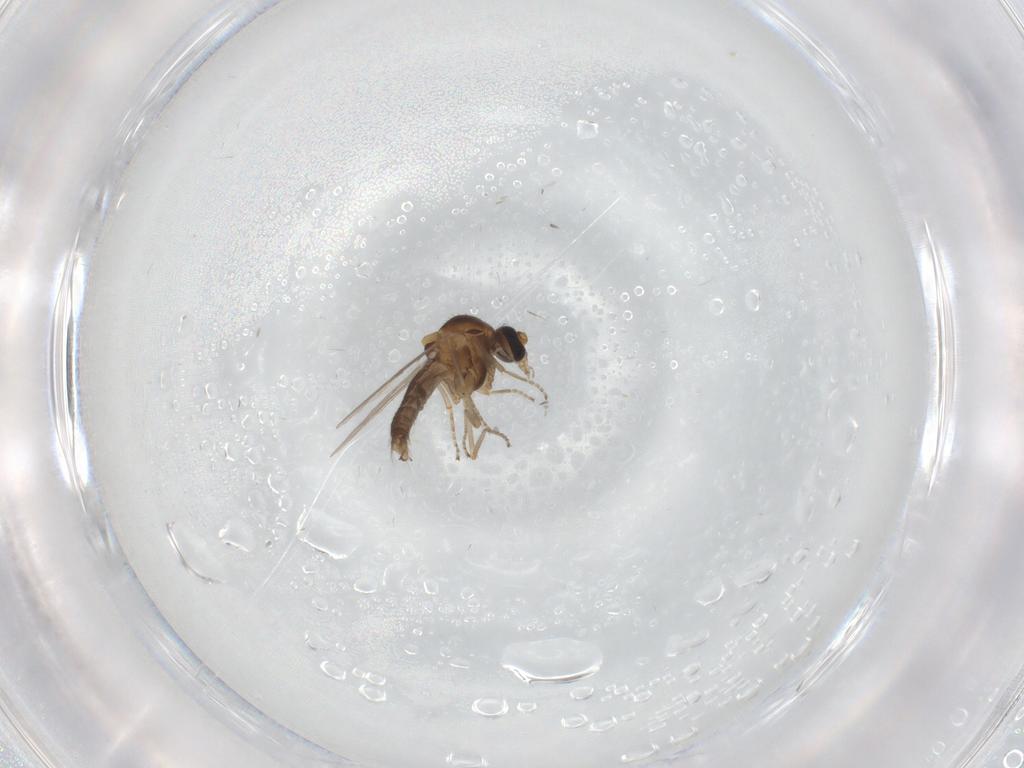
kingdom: Animalia
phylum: Arthropoda
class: Insecta
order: Diptera
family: Ceratopogonidae
